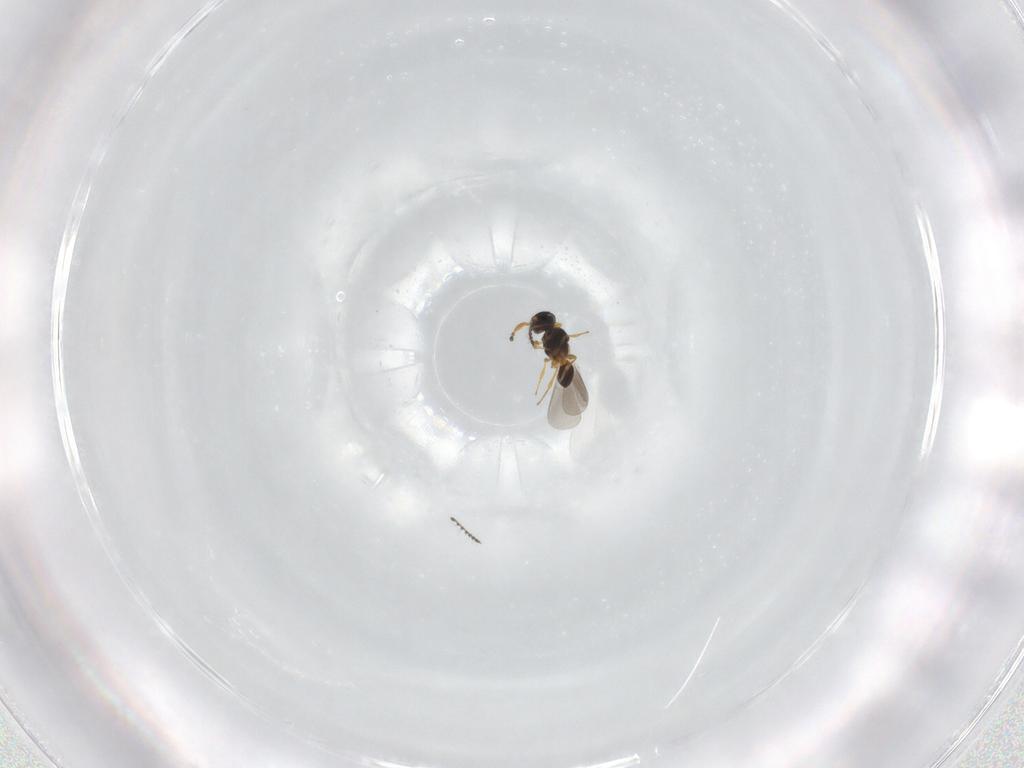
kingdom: Animalia
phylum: Arthropoda
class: Insecta
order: Hymenoptera
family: Platygastridae
